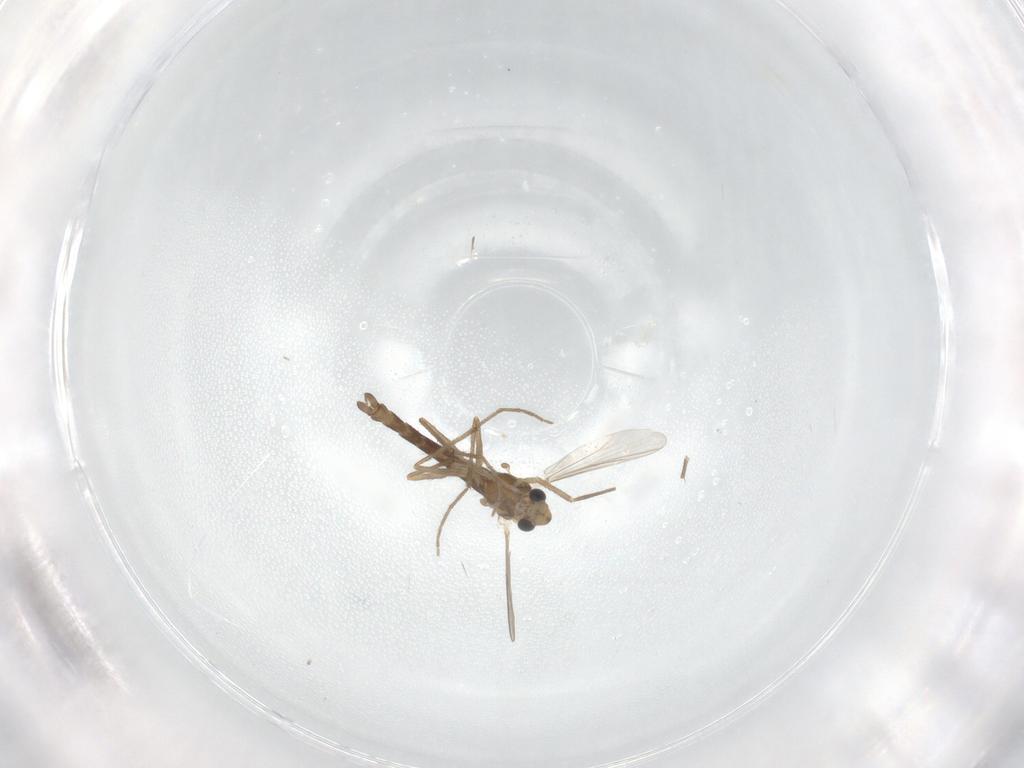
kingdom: Animalia
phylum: Arthropoda
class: Insecta
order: Diptera
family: Chironomidae
